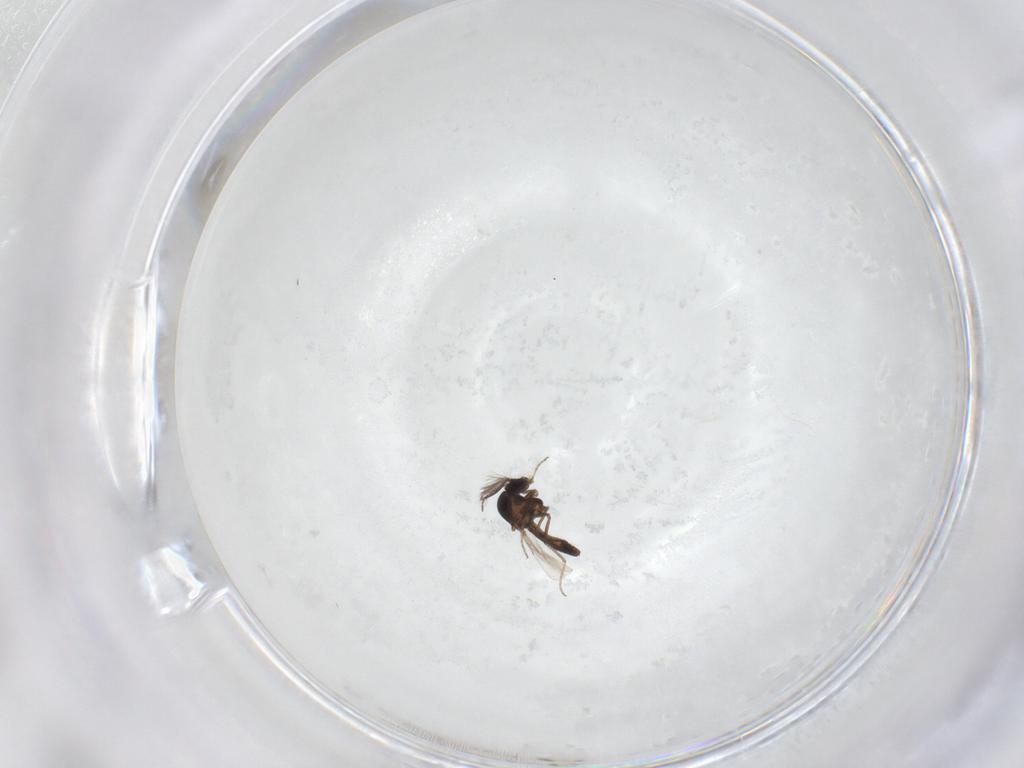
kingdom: Animalia
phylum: Arthropoda
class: Insecta
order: Diptera
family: Ceratopogonidae
